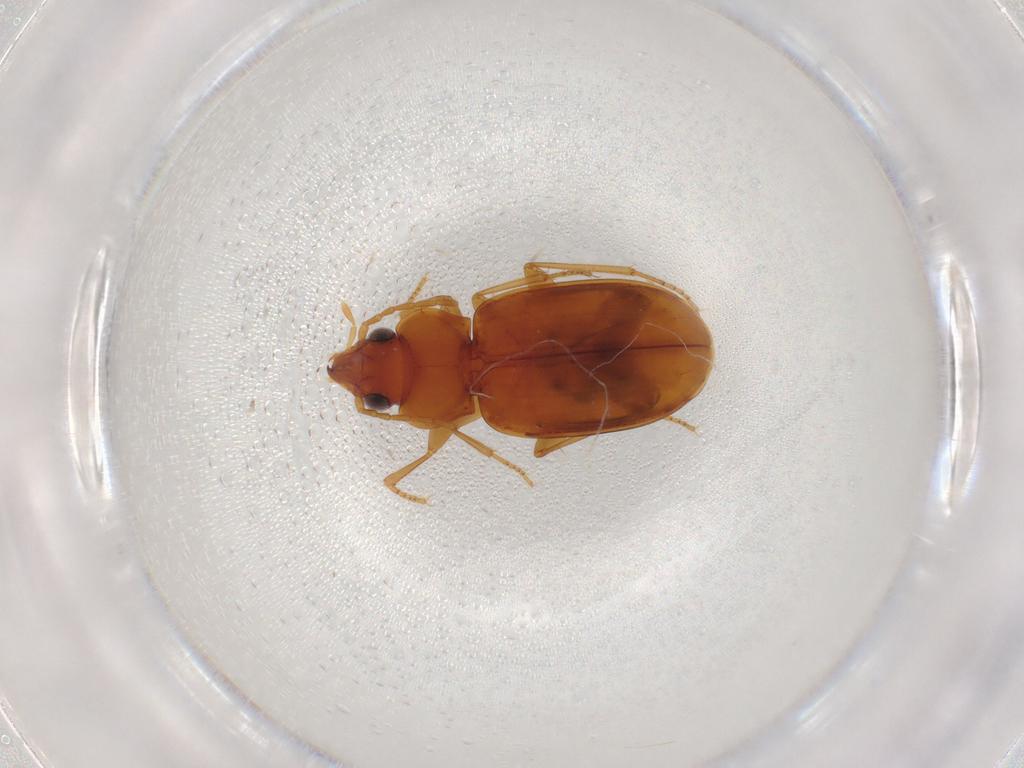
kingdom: Animalia
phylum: Arthropoda
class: Insecta
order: Coleoptera
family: Carabidae
